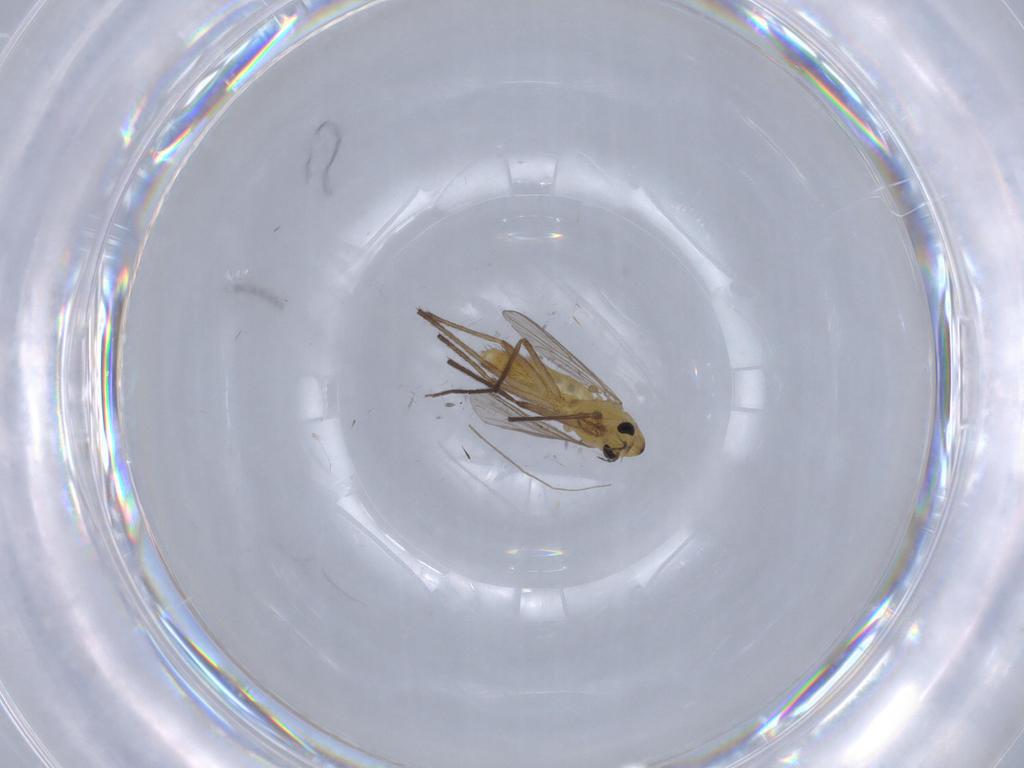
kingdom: Animalia
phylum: Arthropoda
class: Insecta
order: Diptera
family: Chironomidae
